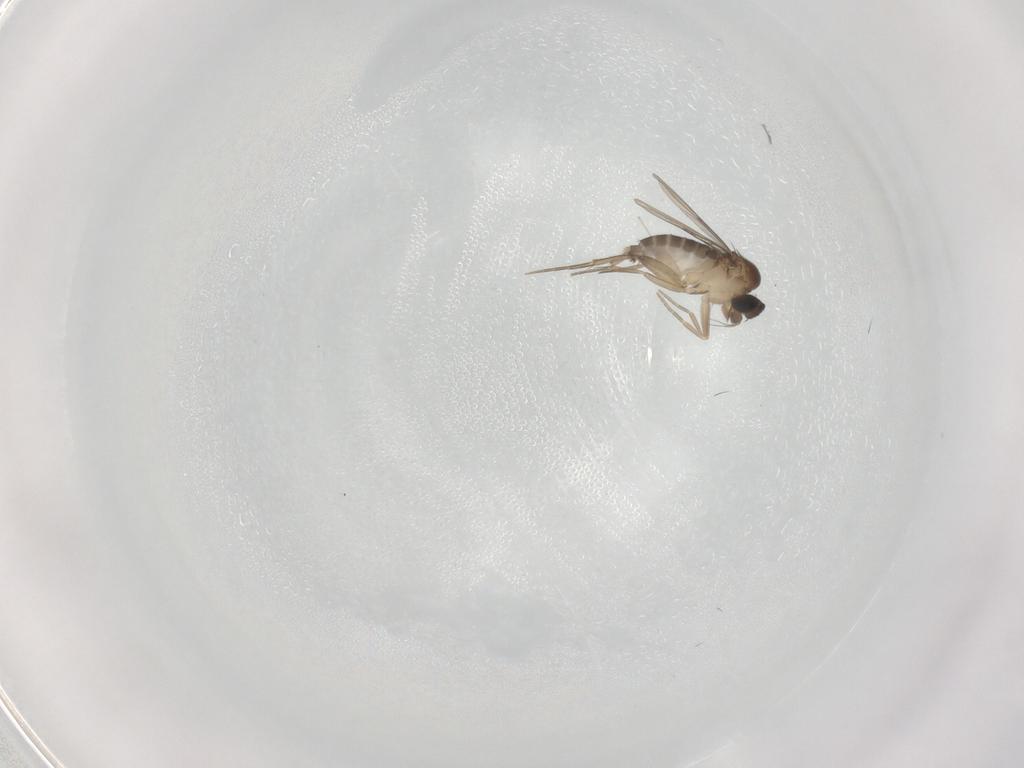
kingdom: Animalia
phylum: Arthropoda
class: Insecta
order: Diptera
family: Phoridae
